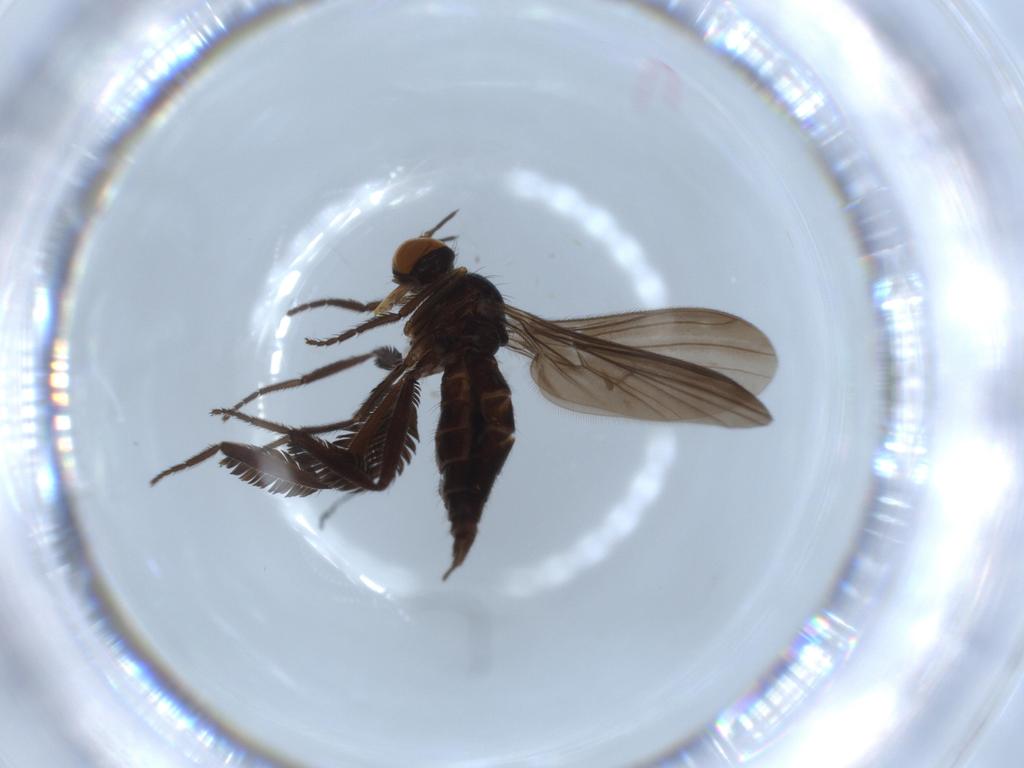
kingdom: Animalia
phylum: Arthropoda
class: Insecta
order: Diptera
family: Empididae
